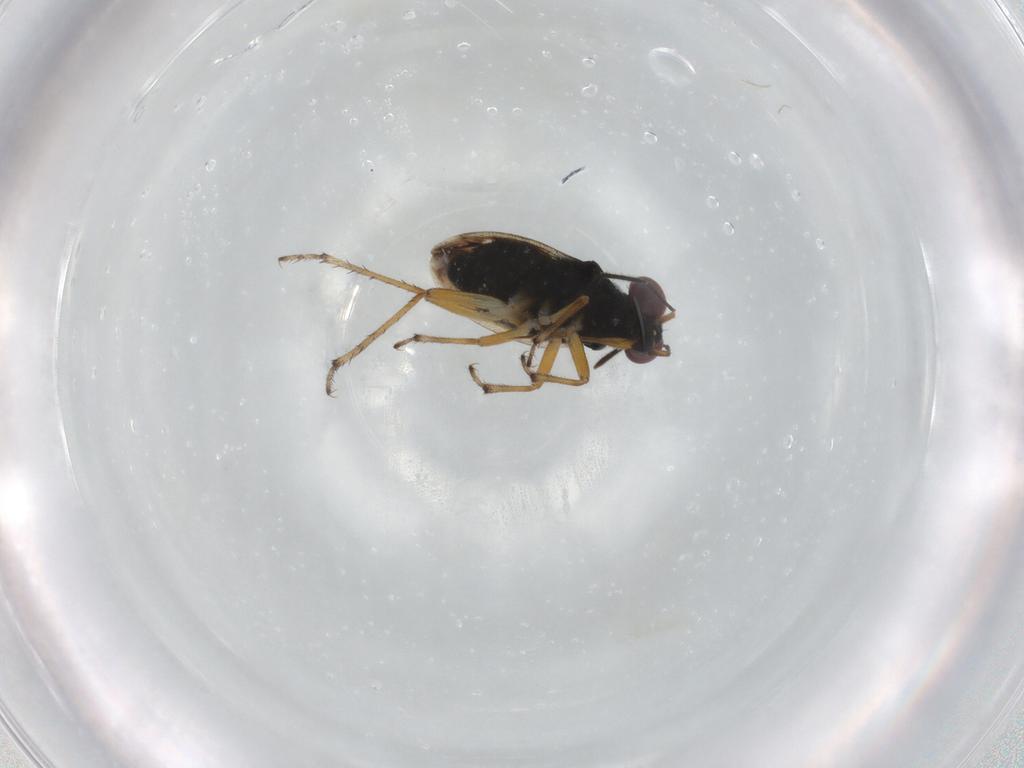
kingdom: Animalia
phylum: Arthropoda
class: Insecta
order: Hemiptera
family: Saldidae
